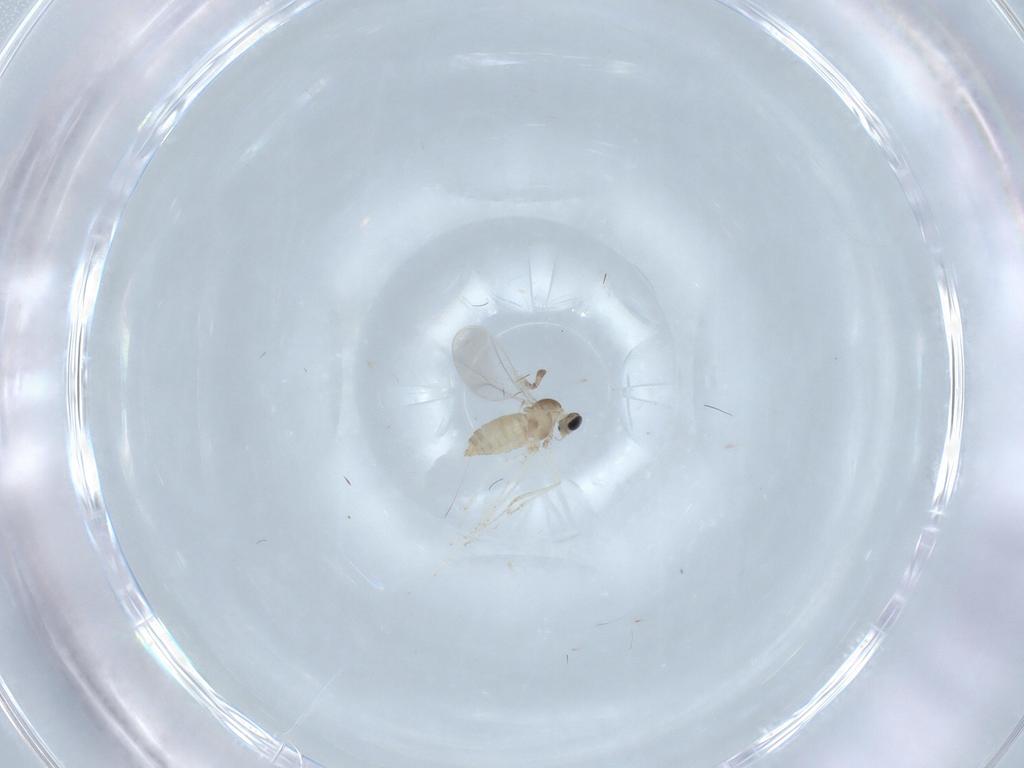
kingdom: Animalia
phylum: Arthropoda
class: Insecta
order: Diptera
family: Cecidomyiidae
